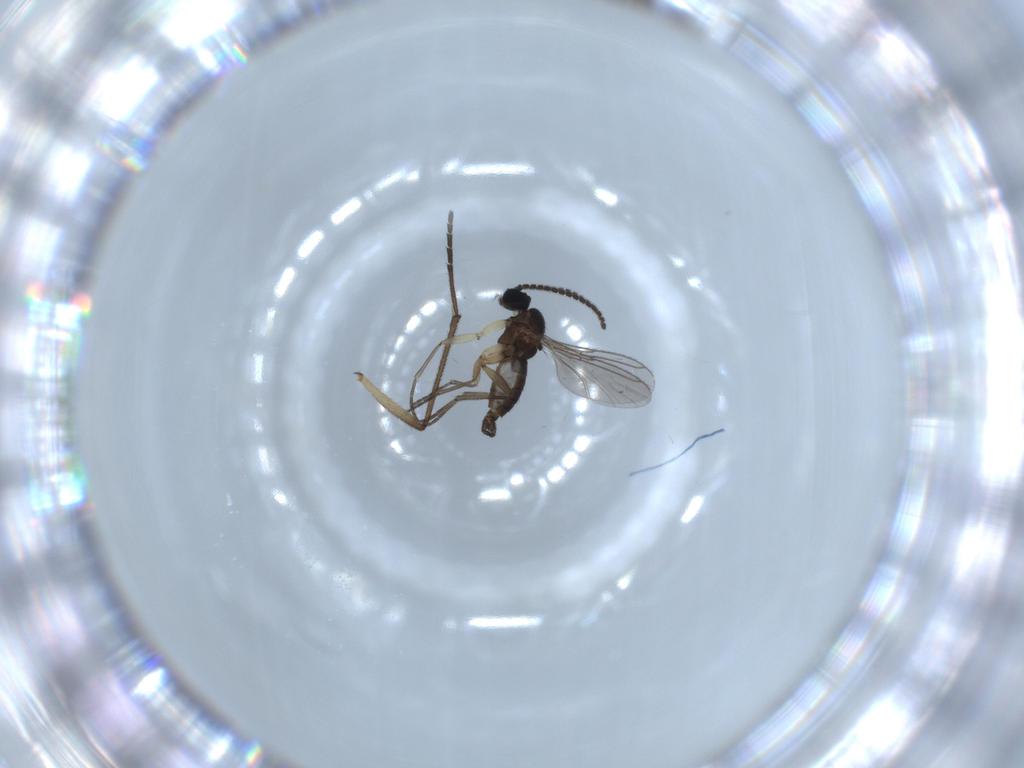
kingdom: Animalia
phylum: Arthropoda
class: Insecta
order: Diptera
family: Sciaridae
